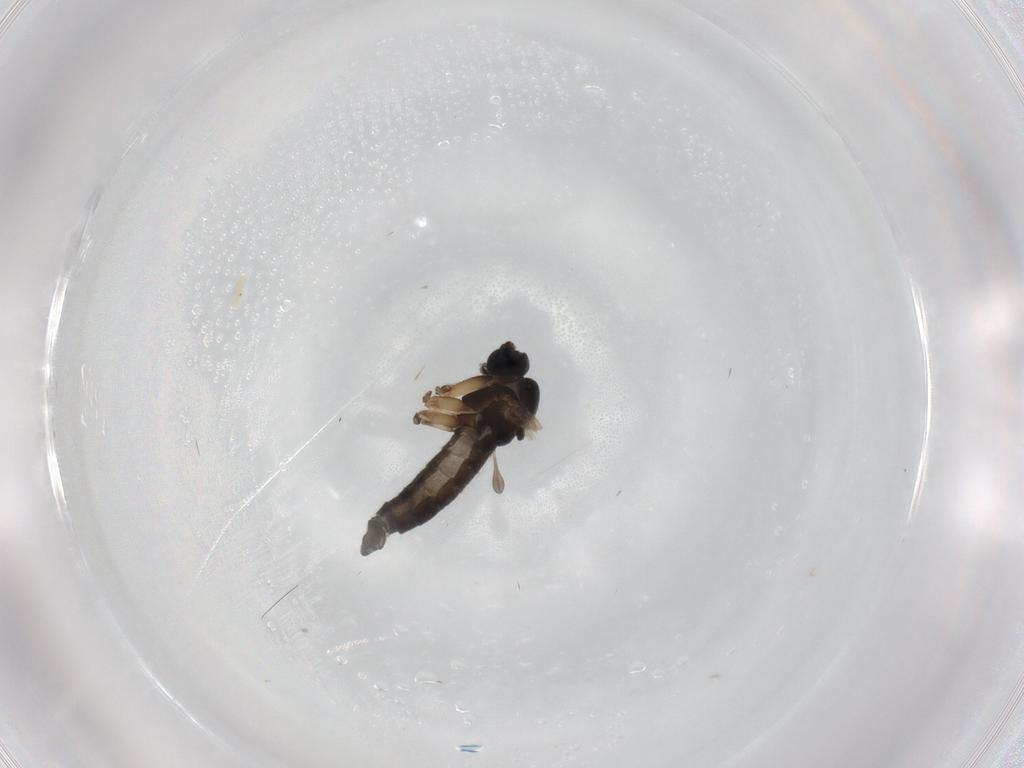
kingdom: Animalia
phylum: Arthropoda
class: Insecta
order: Diptera
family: Sciaridae
